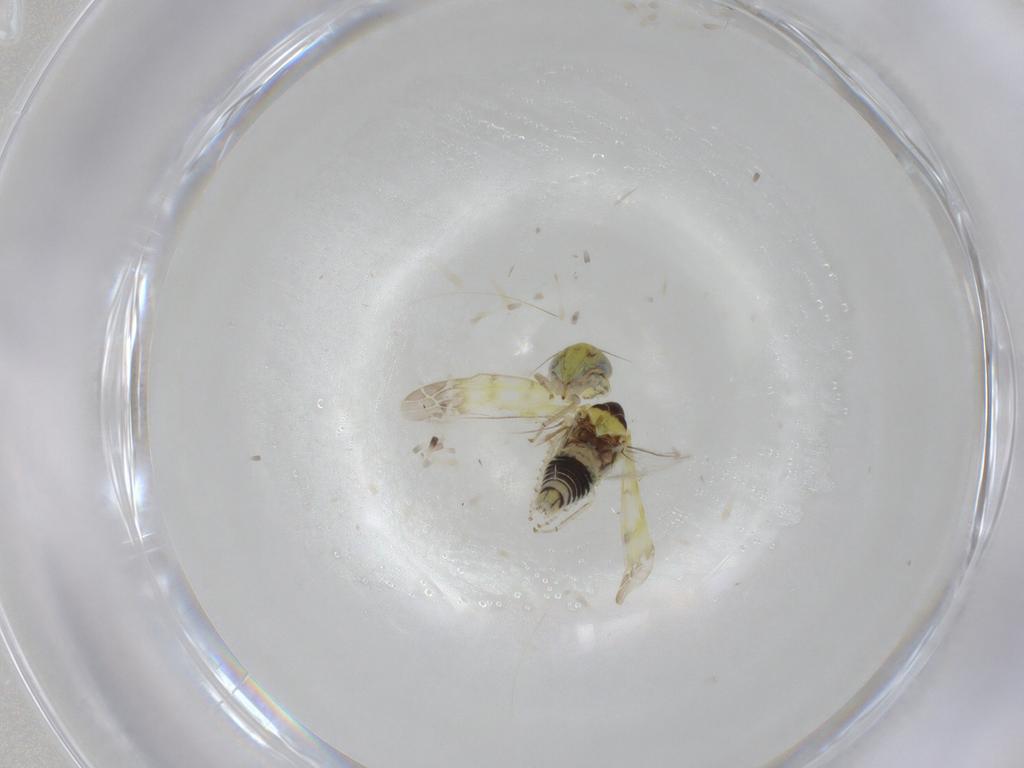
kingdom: Animalia
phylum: Arthropoda
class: Insecta
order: Hemiptera
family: Cicadellidae
